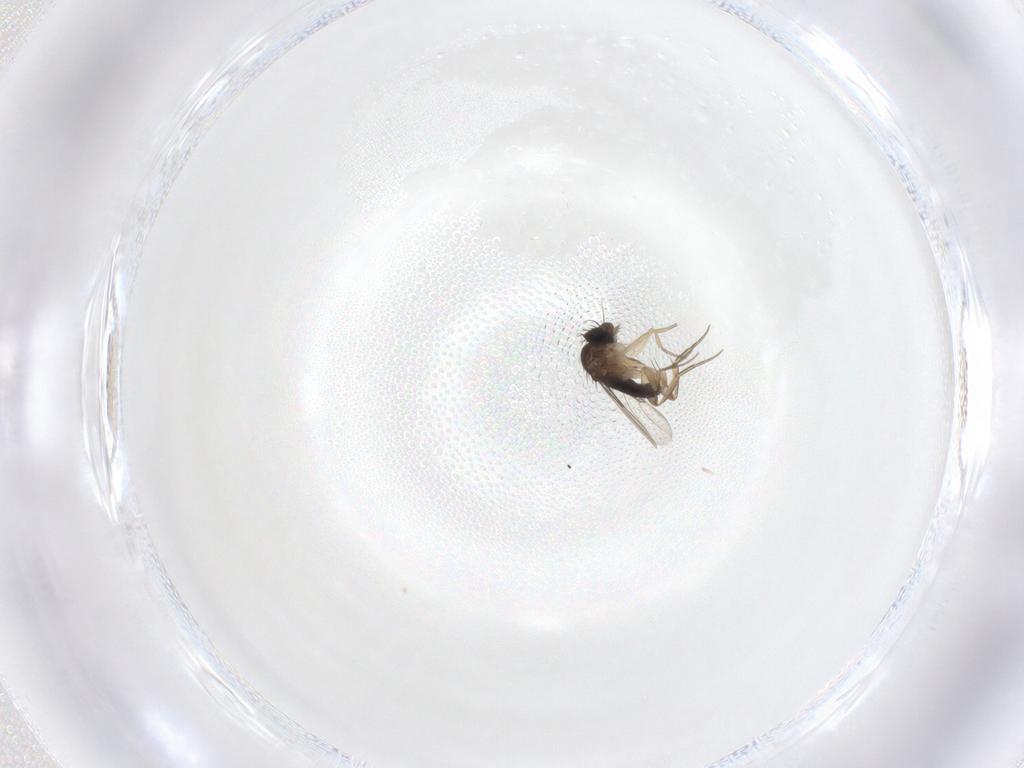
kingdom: Animalia
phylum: Arthropoda
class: Insecta
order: Diptera
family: Phoridae
